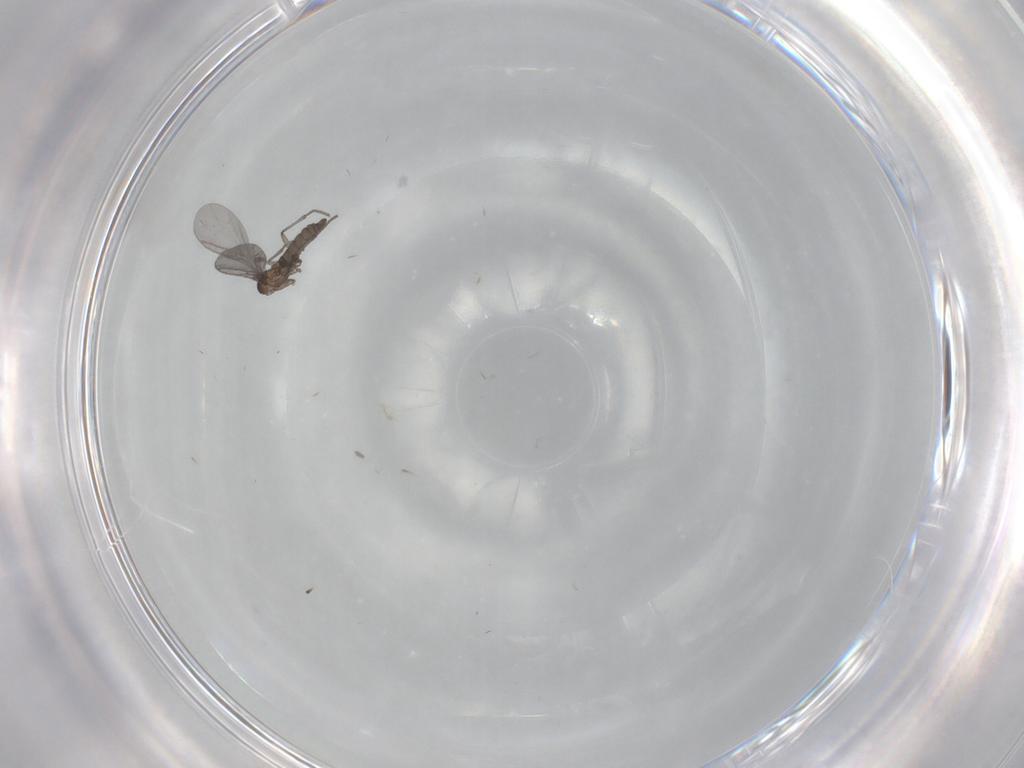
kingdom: Animalia
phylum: Arthropoda
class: Insecta
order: Diptera
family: Sciaridae
